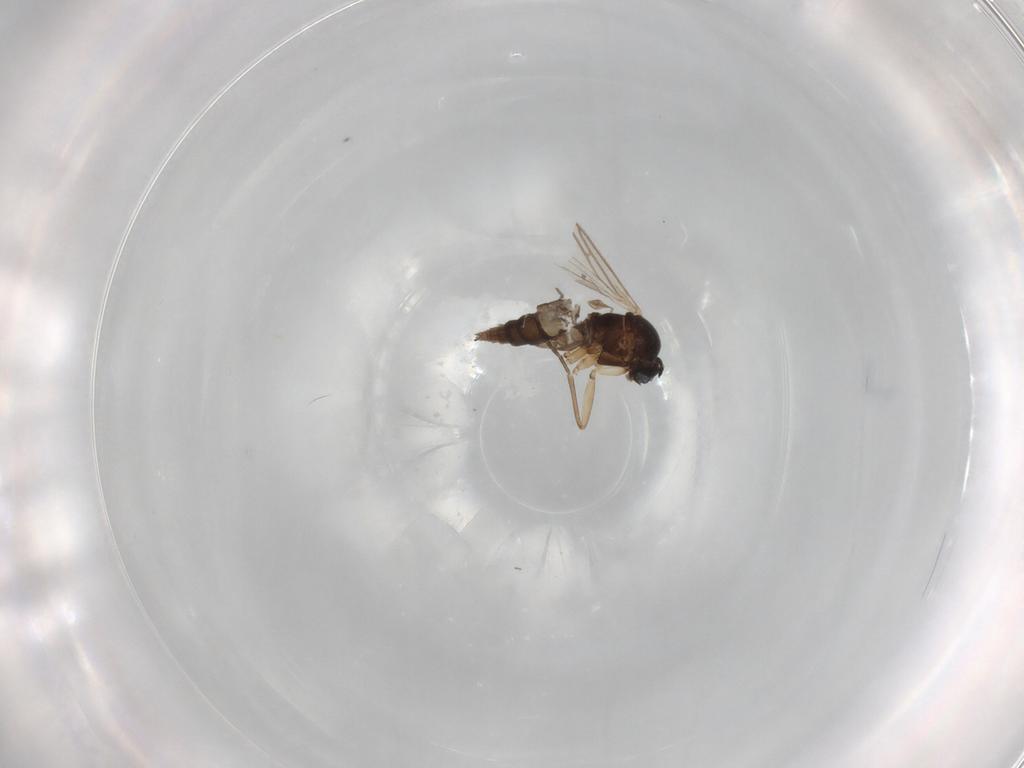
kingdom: Animalia
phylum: Arthropoda
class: Insecta
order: Diptera
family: Sciaridae
